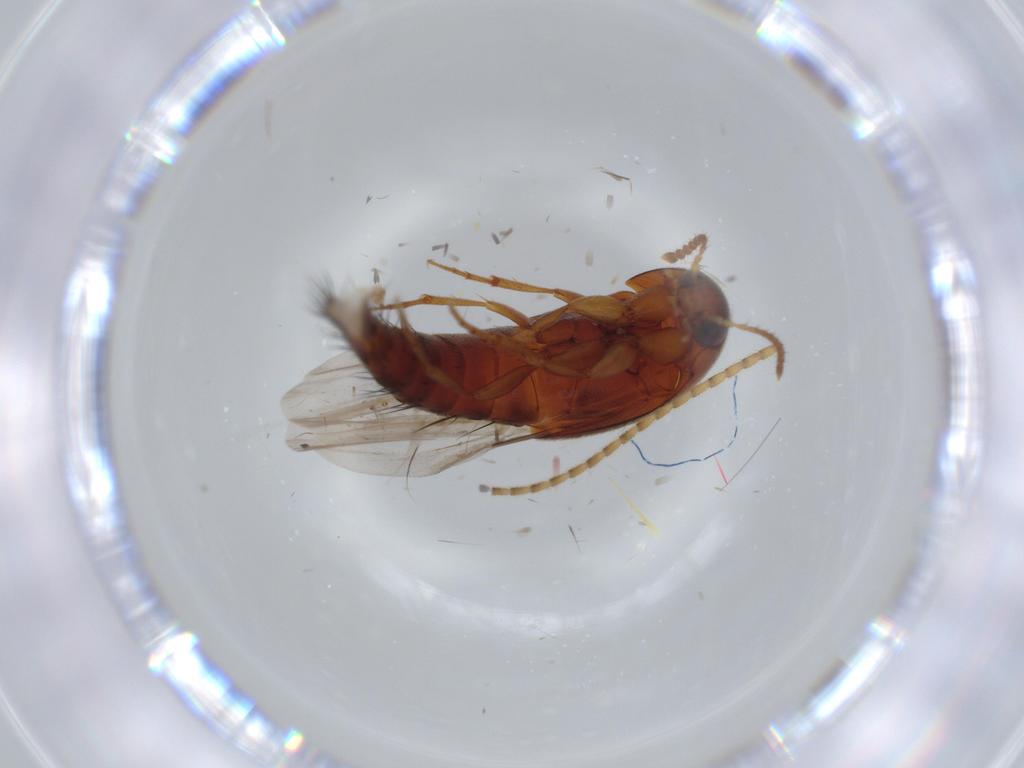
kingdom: Animalia
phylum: Arthropoda
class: Insecta
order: Coleoptera
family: Staphylinidae
